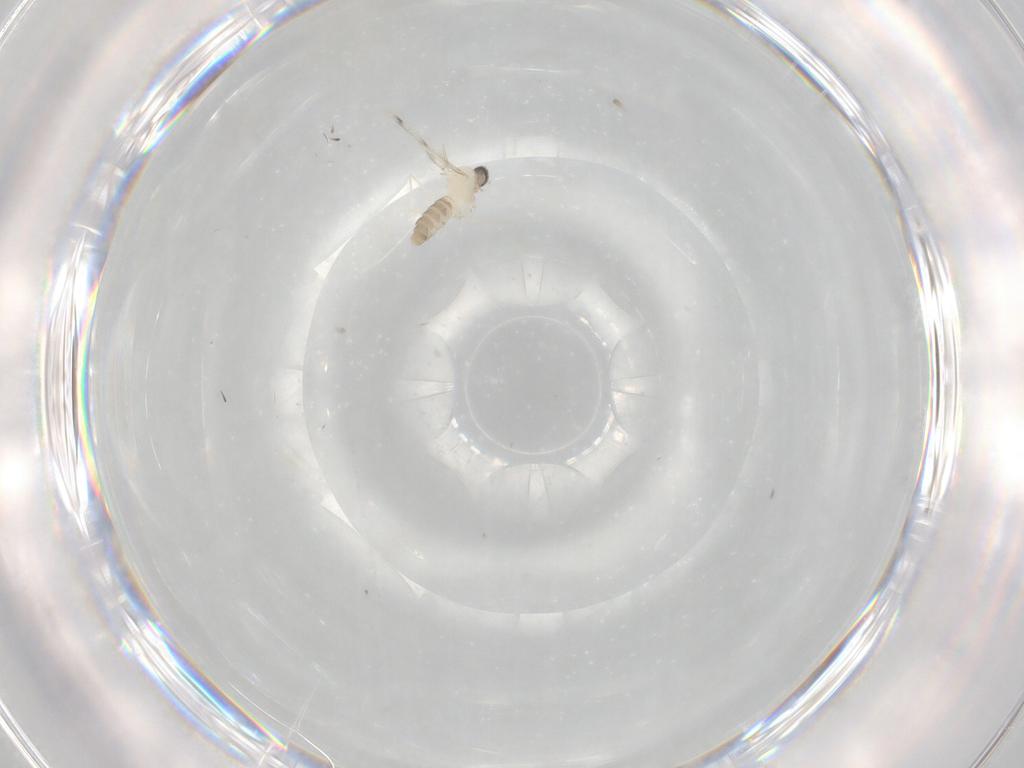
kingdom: Animalia
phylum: Arthropoda
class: Insecta
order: Diptera
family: Cecidomyiidae
